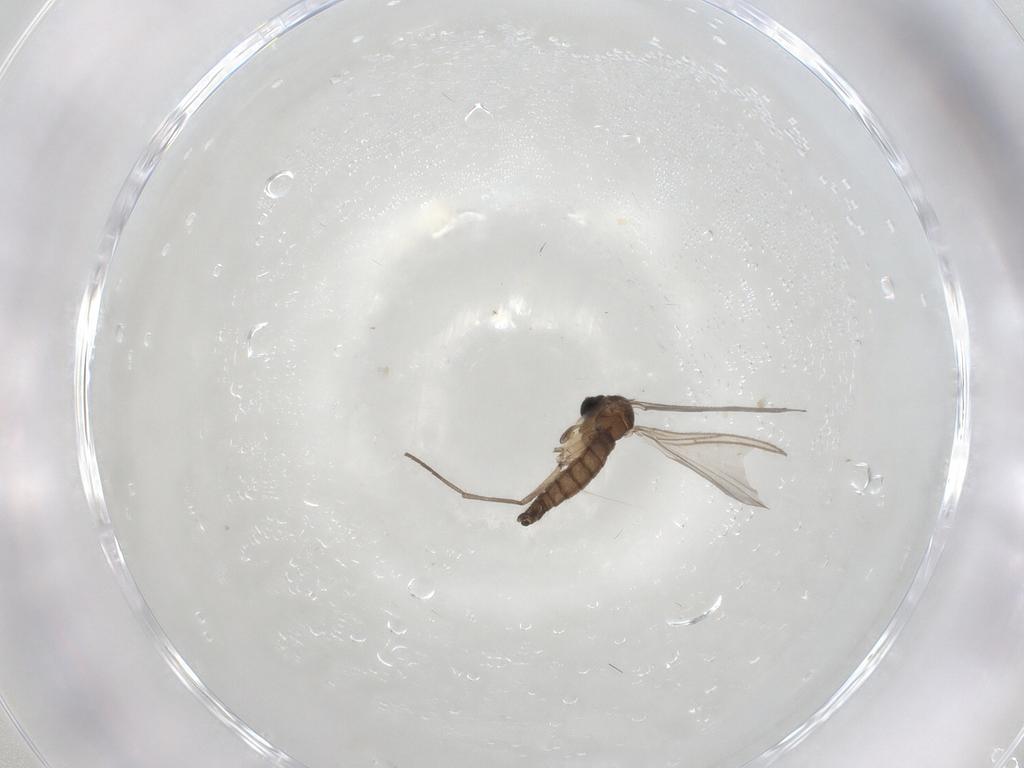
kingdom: Animalia
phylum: Arthropoda
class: Insecta
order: Diptera
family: Sciaridae
